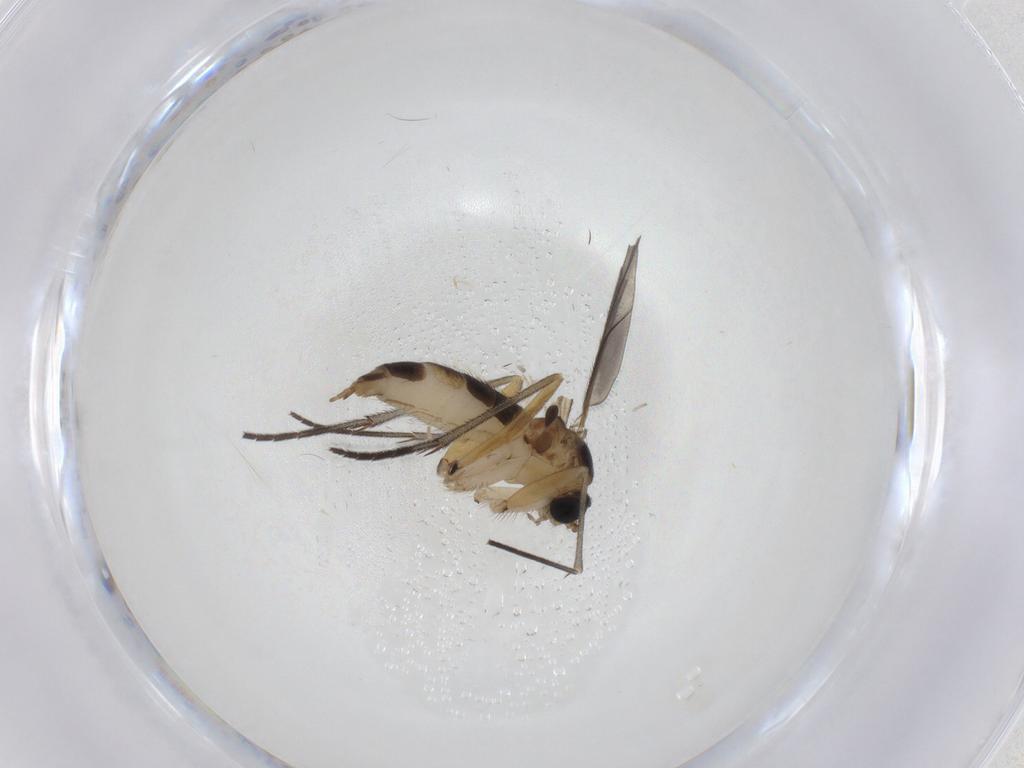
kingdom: Animalia
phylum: Arthropoda
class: Insecta
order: Diptera
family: Sciaridae
